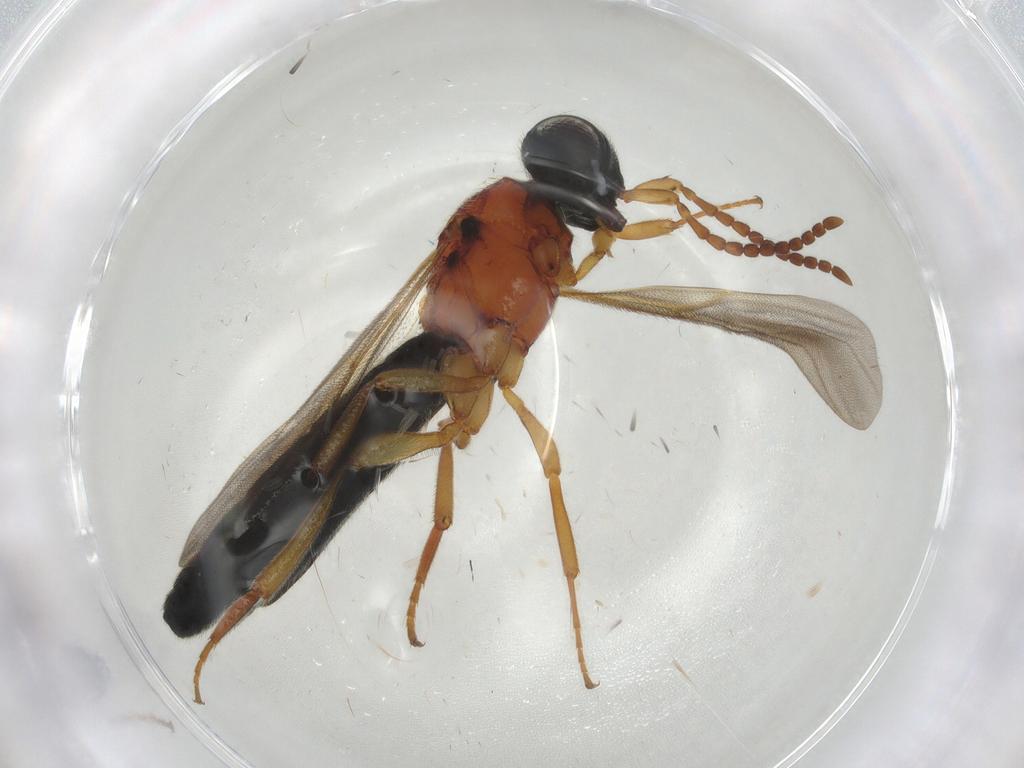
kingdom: Animalia
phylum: Arthropoda
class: Insecta
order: Hymenoptera
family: Scelionidae
